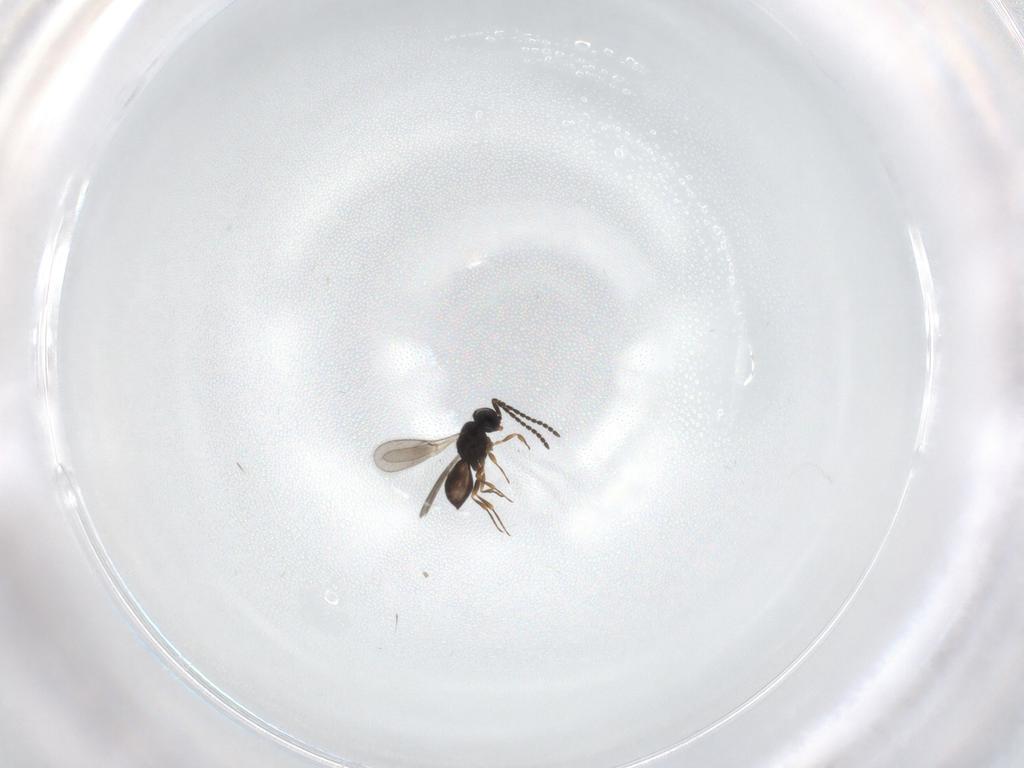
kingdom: Animalia
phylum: Arthropoda
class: Insecta
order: Hymenoptera
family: Scelionidae
